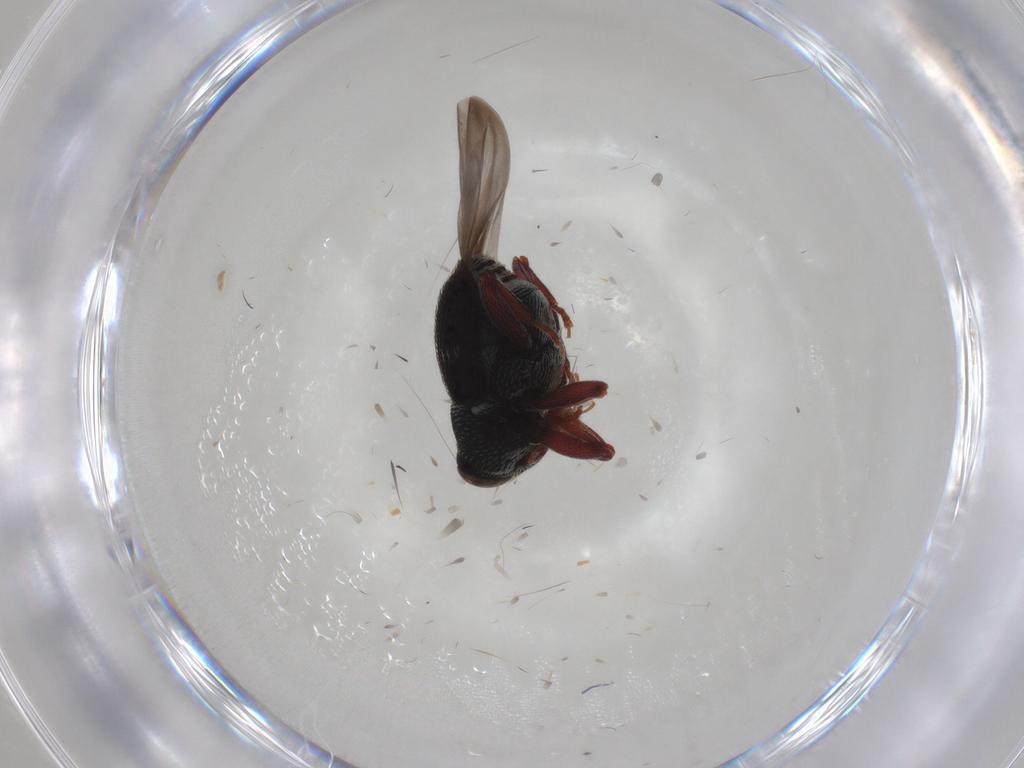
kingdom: Animalia
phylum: Arthropoda
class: Insecta
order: Coleoptera
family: Curculionidae
